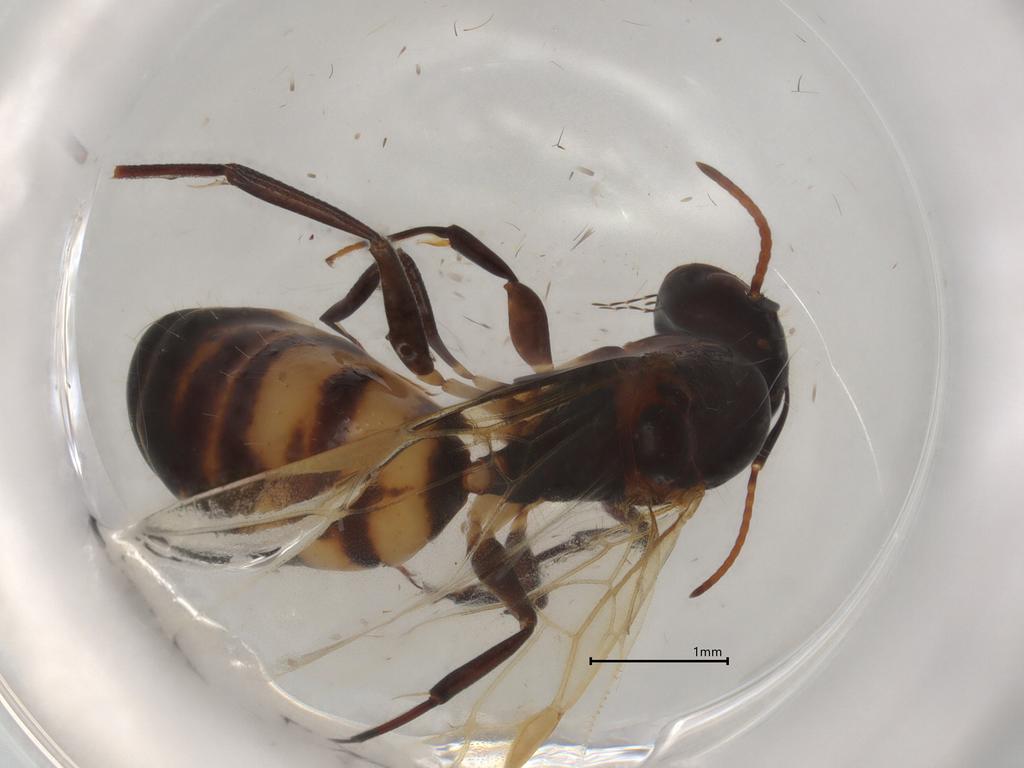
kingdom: Animalia
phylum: Arthropoda
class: Insecta
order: Hymenoptera
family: Formicidae
